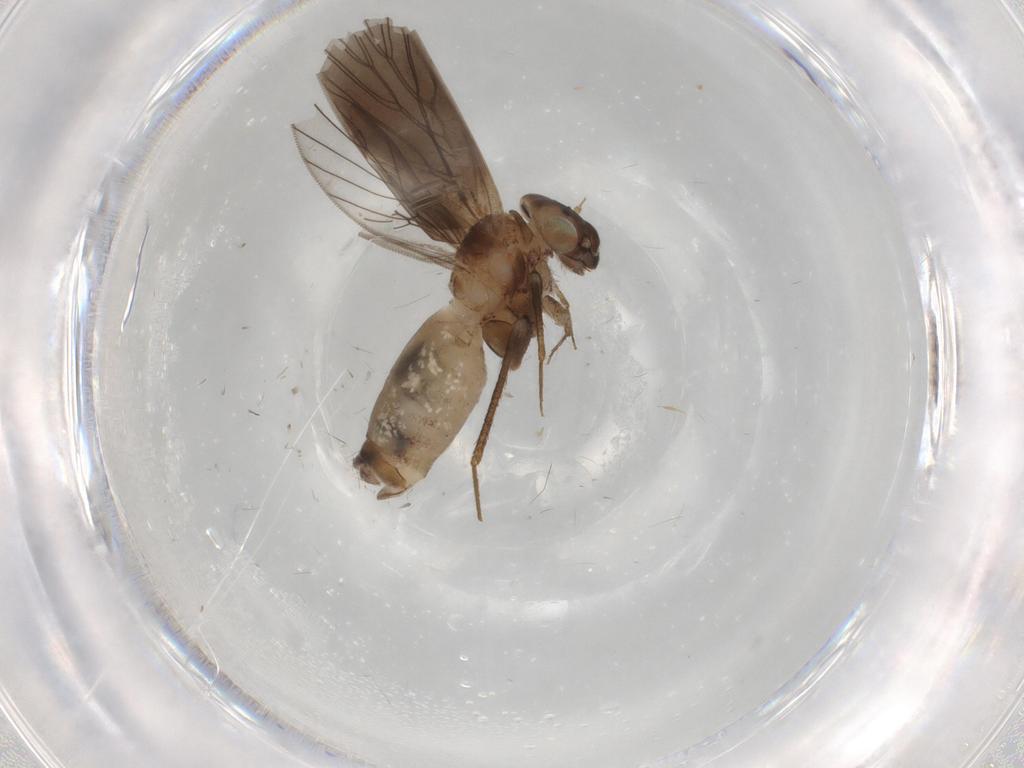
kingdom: Animalia
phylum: Arthropoda
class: Insecta
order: Psocodea
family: Lepidopsocidae
